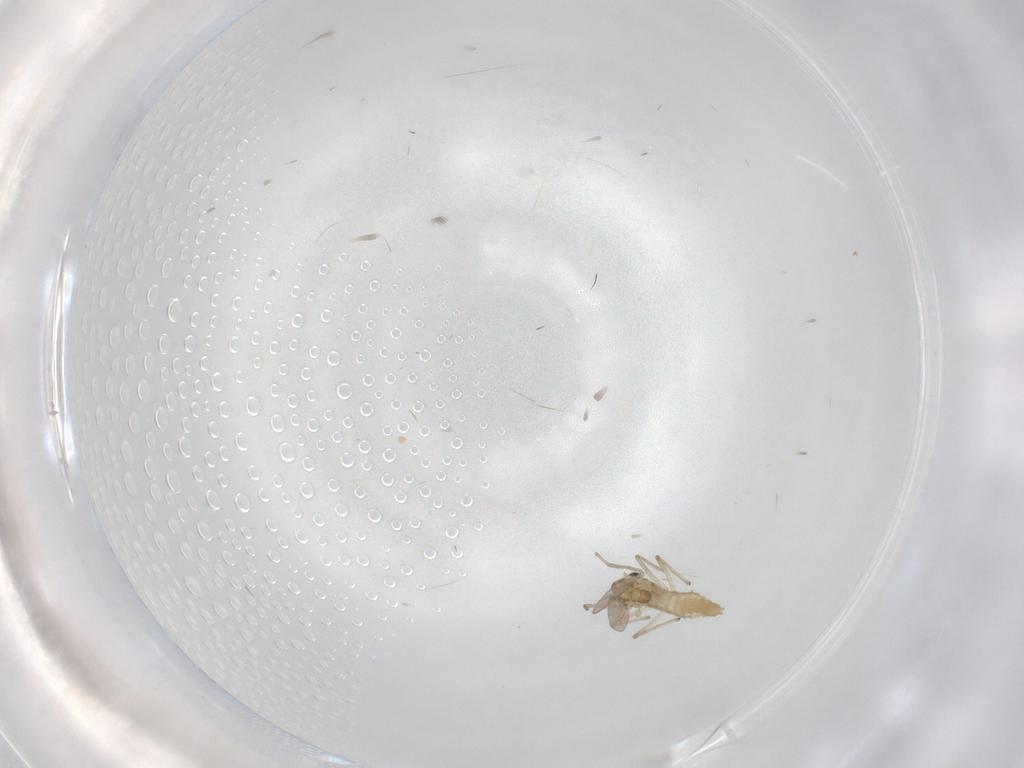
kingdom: Animalia
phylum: Arthropoda
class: Insecta
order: Diptera
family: Chironomidae
